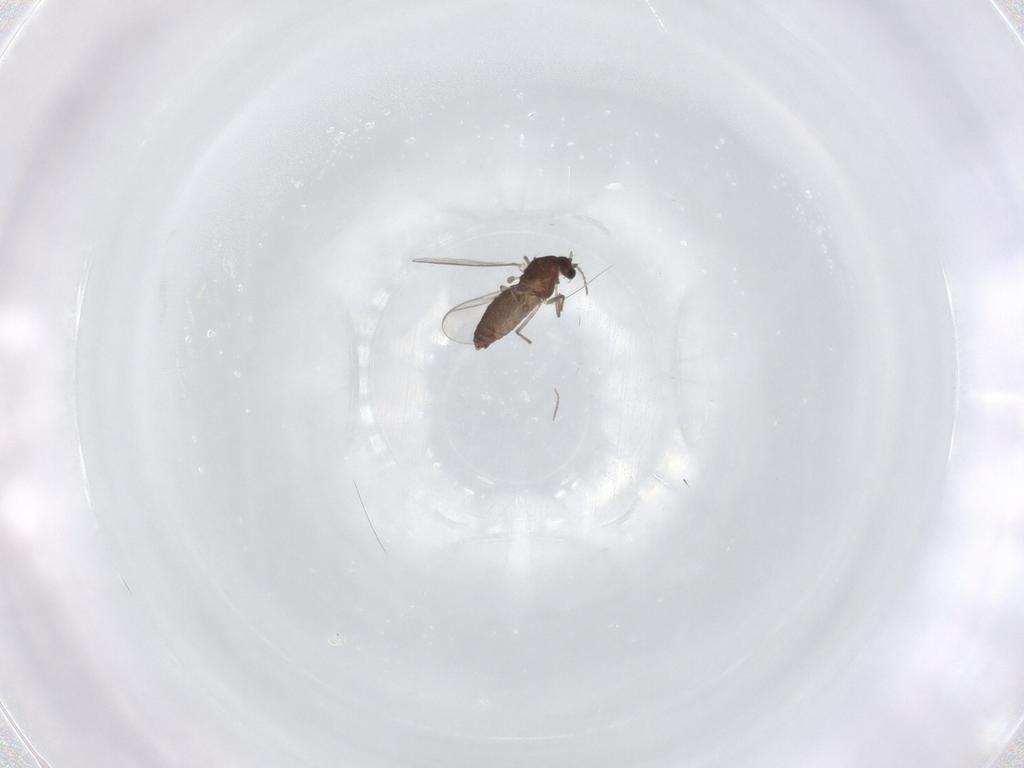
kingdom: Animalia
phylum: Arthropoda
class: Insecta
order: Diptera
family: Chironomidae
